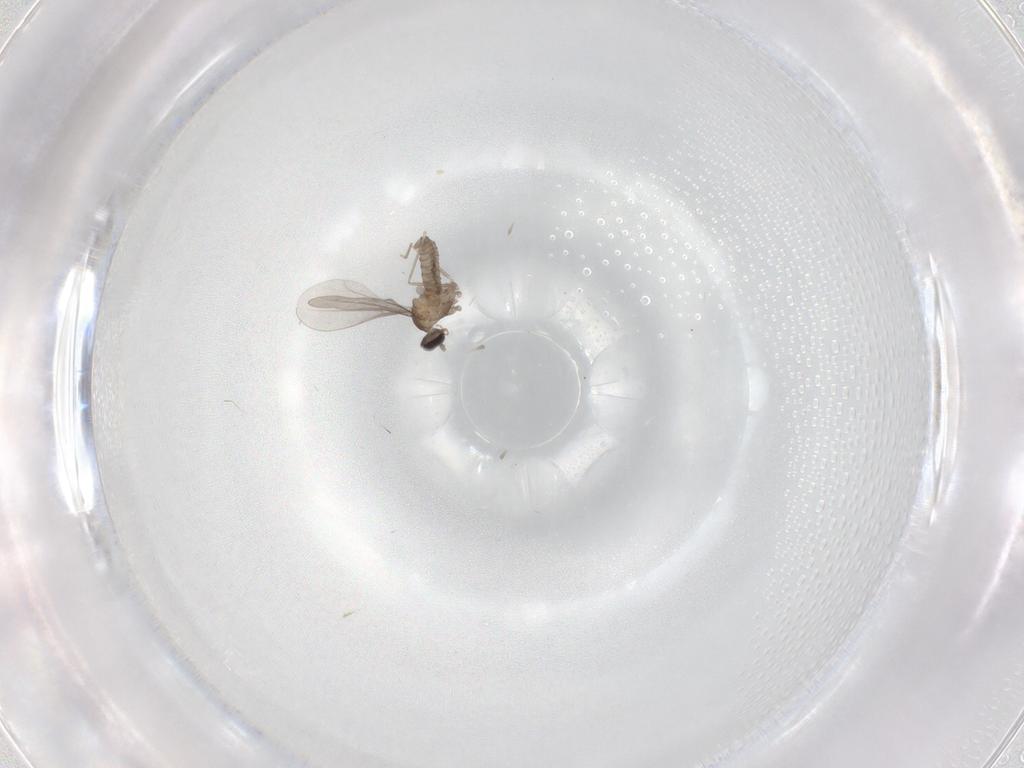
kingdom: Animalia
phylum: Arthropoda
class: Insecta
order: Diptera
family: Cecidomyiidae
